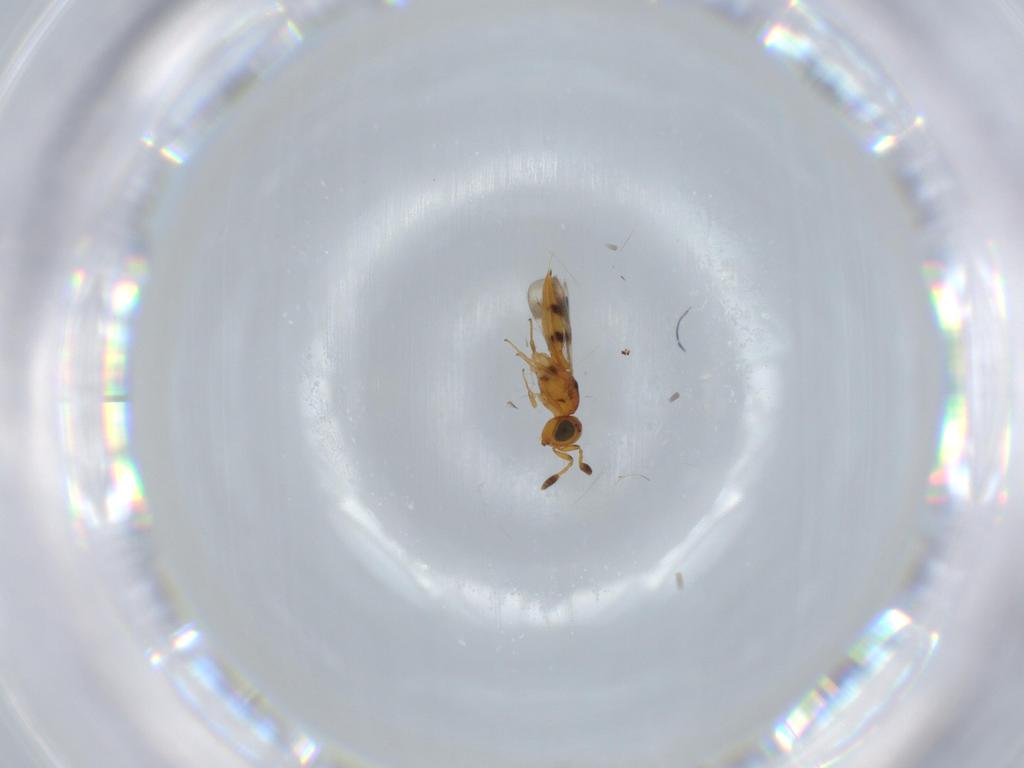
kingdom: Animalia
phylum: Arthropoda
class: Insecta
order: Hymenoptera
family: Scelionidae
